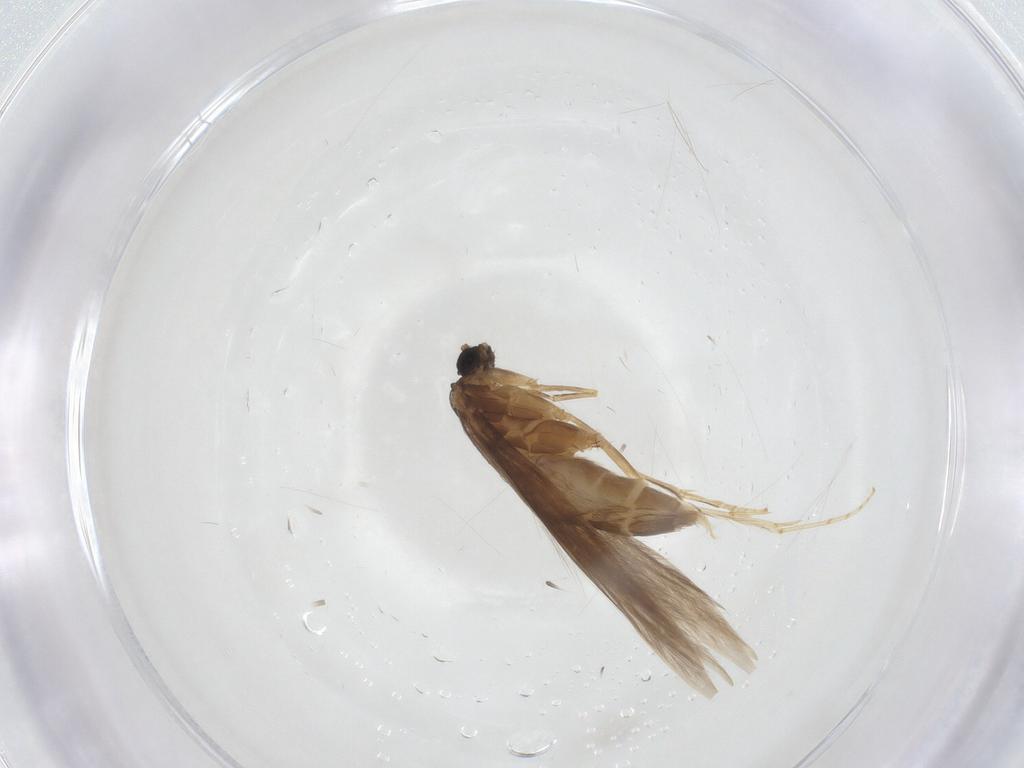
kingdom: Animalia
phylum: Arthropoda
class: Insecta
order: Trichoptera
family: Hydroptilidae
